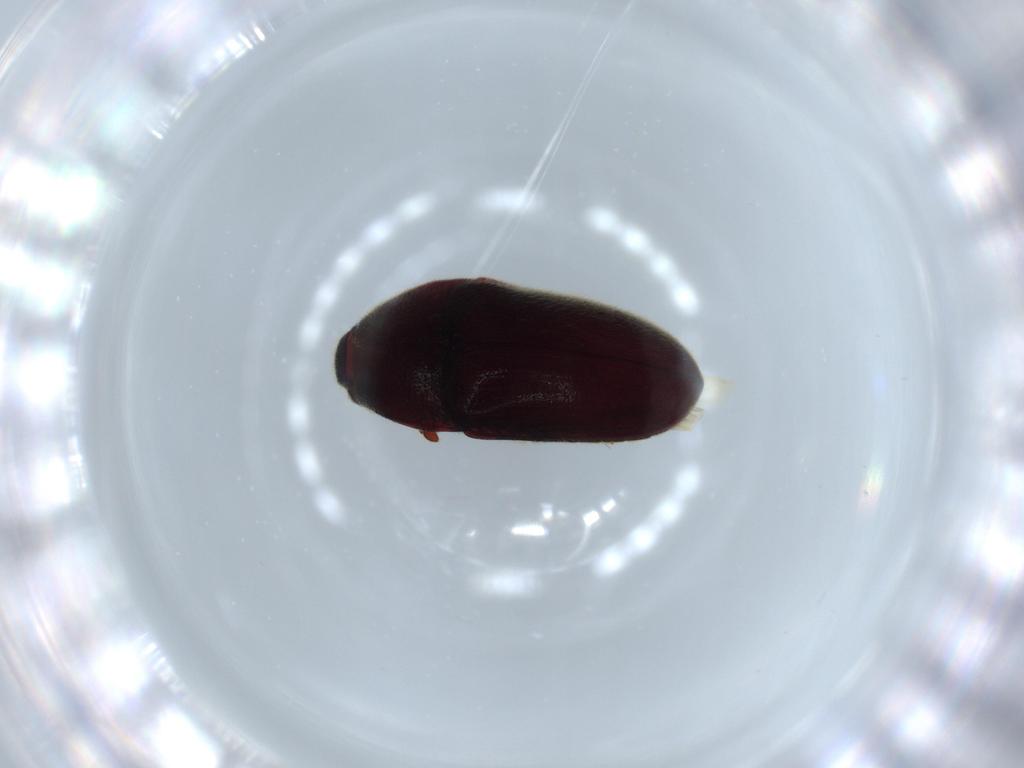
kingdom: Animalia
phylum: Arthropoda
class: Insecta
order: Coleoptera
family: Throscidae
